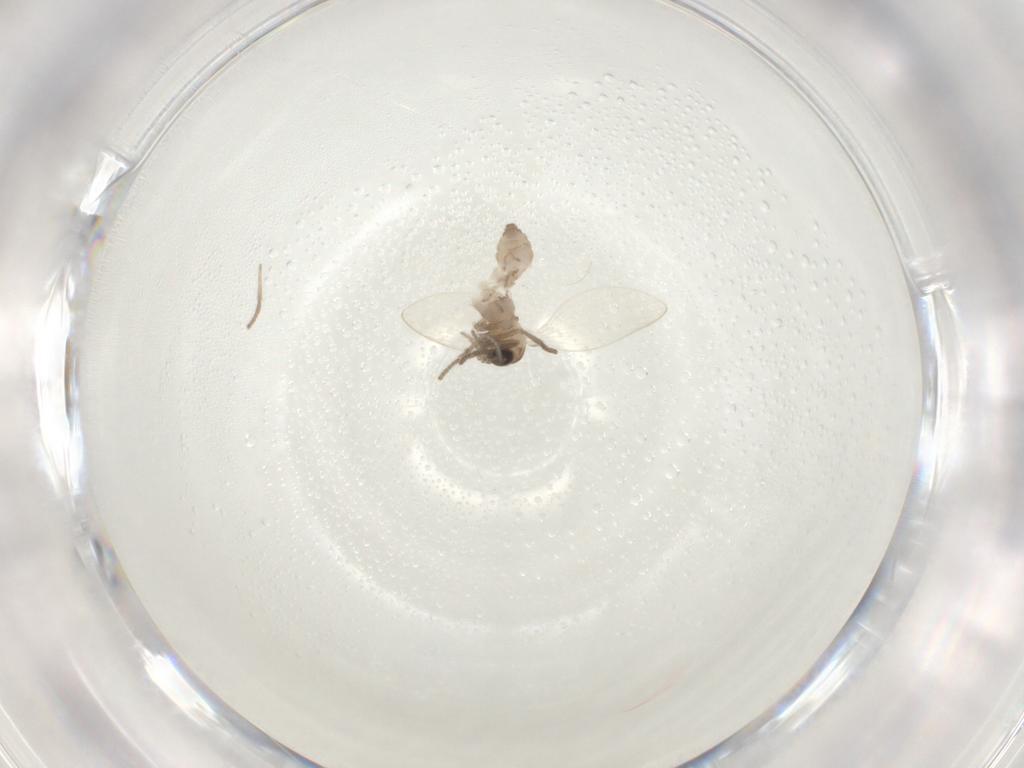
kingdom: Animalia
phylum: Arthropoda
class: Insecta
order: Diptera
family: Psychodidae
